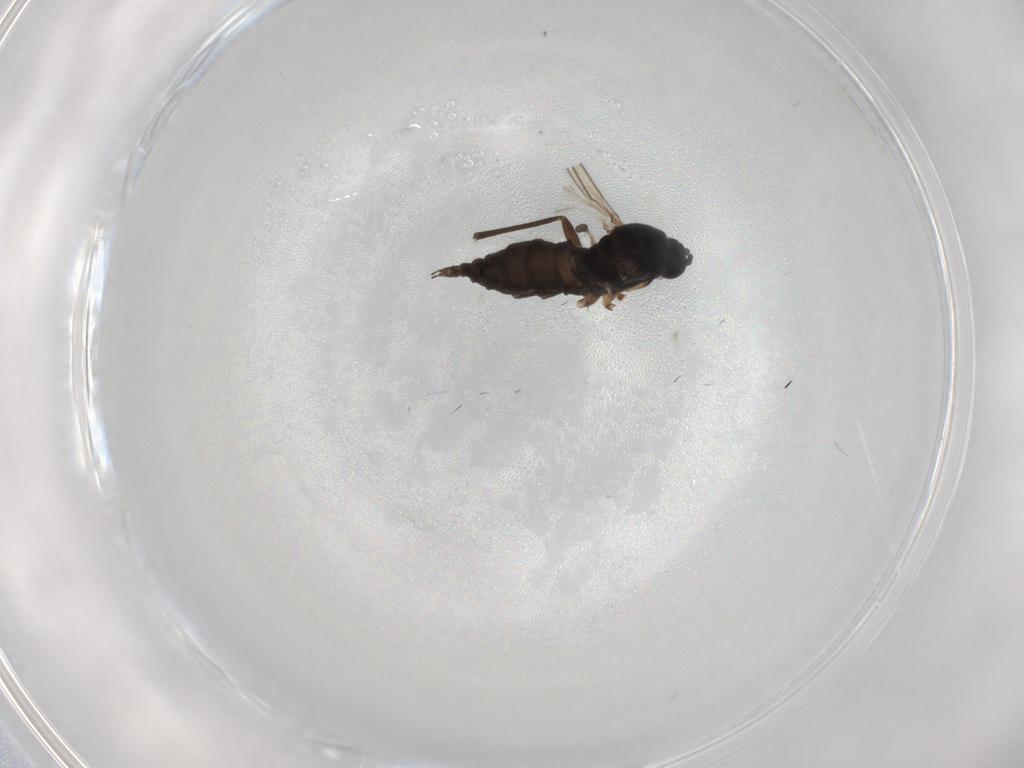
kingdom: Animalia
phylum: Arthropoda
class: Insecta
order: Diptera
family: Sciaridae
